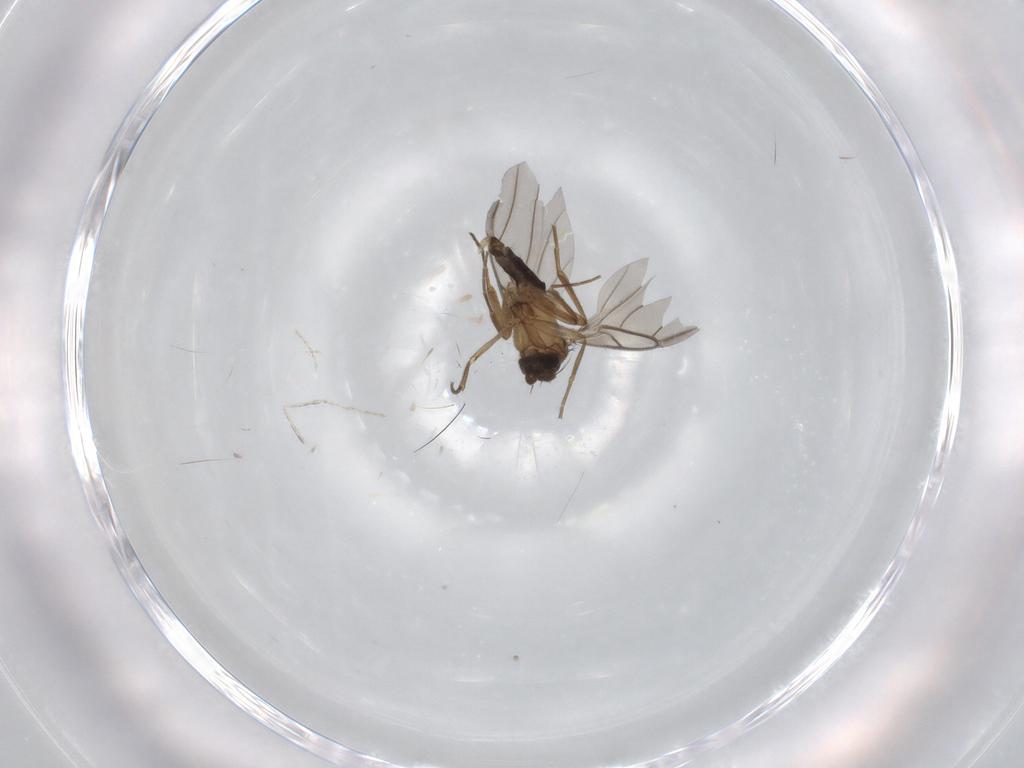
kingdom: Animalia
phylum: Arthropoda
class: Insecta
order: Diptera
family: Phoridae
